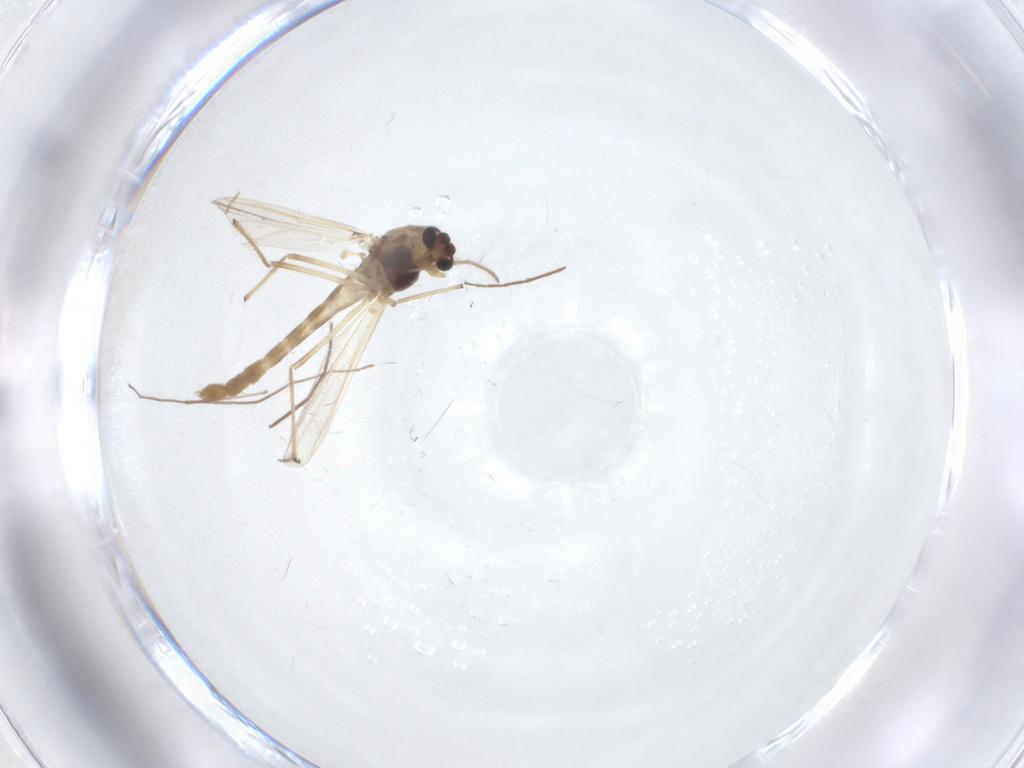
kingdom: Animalia
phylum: Arthropoda
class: Insecta
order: Diptera
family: Chironomidae
